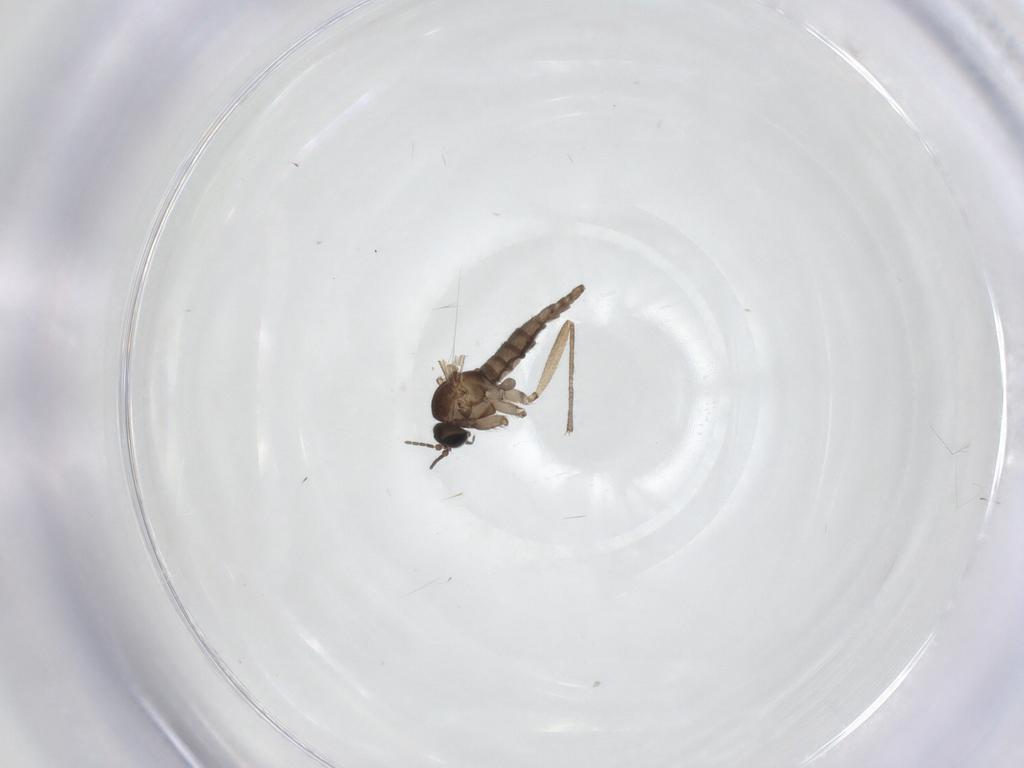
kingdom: Animalia
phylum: Arthropoda
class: Insecta
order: Diptera
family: Sciaridae
